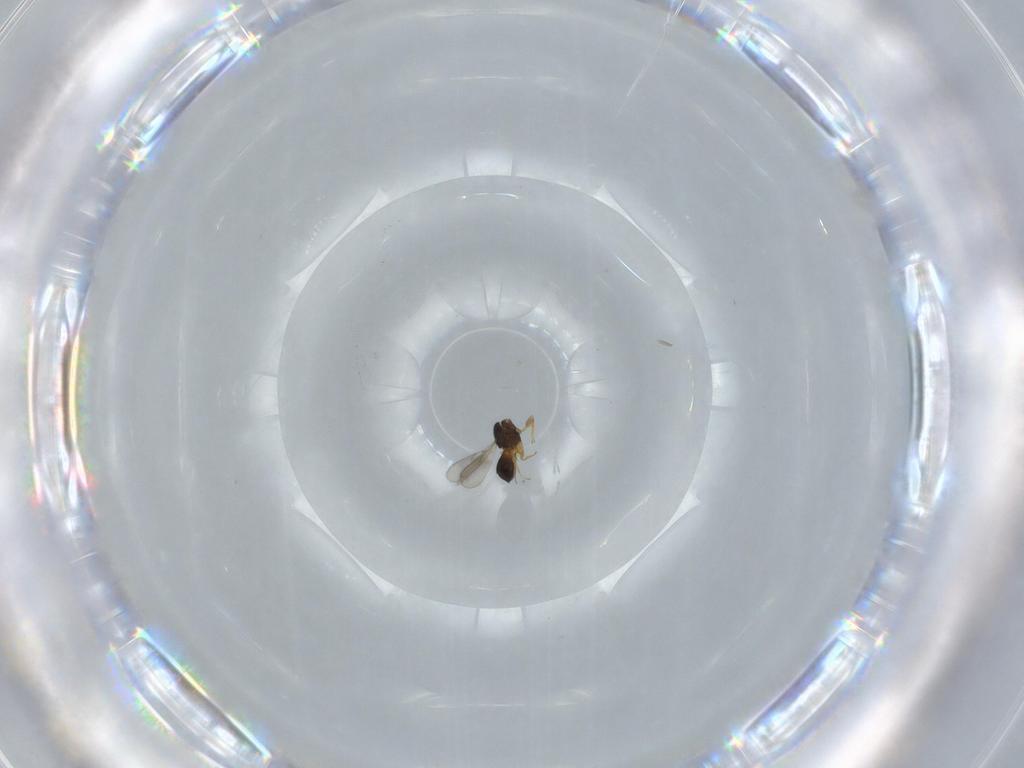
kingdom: Animalia
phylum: Arthropoda
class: Insecta
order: Hymenoptera
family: Scelionidae
